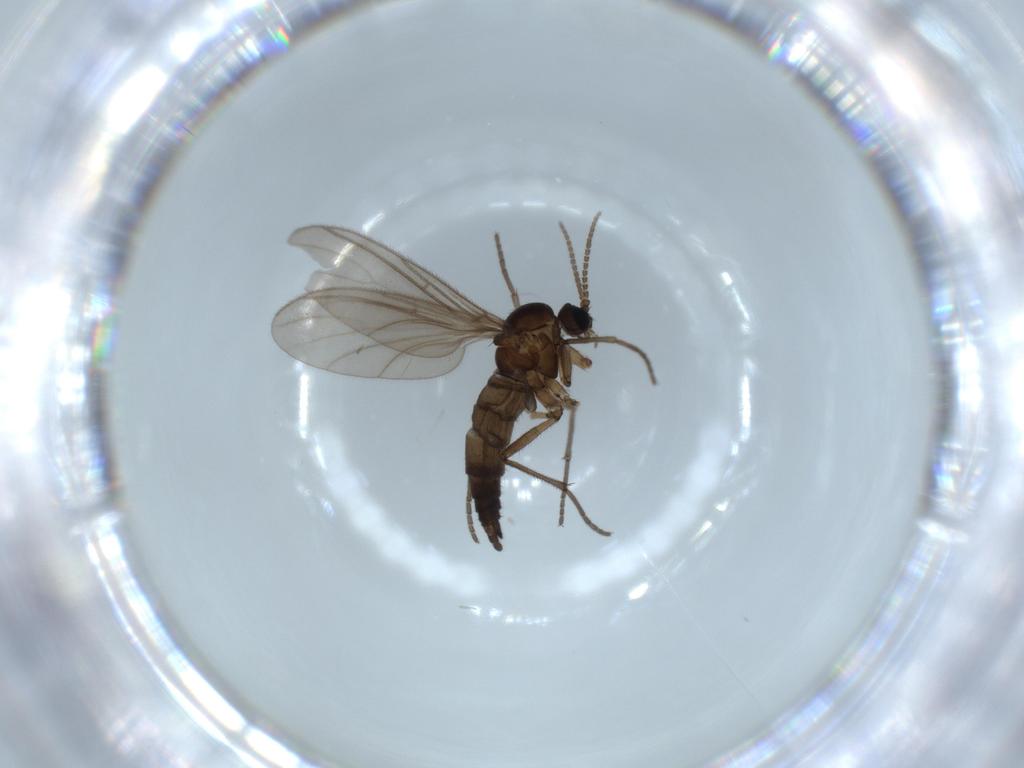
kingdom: Animalia
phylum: Arthropoda
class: Insecta
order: Diptera
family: Sciaridae
